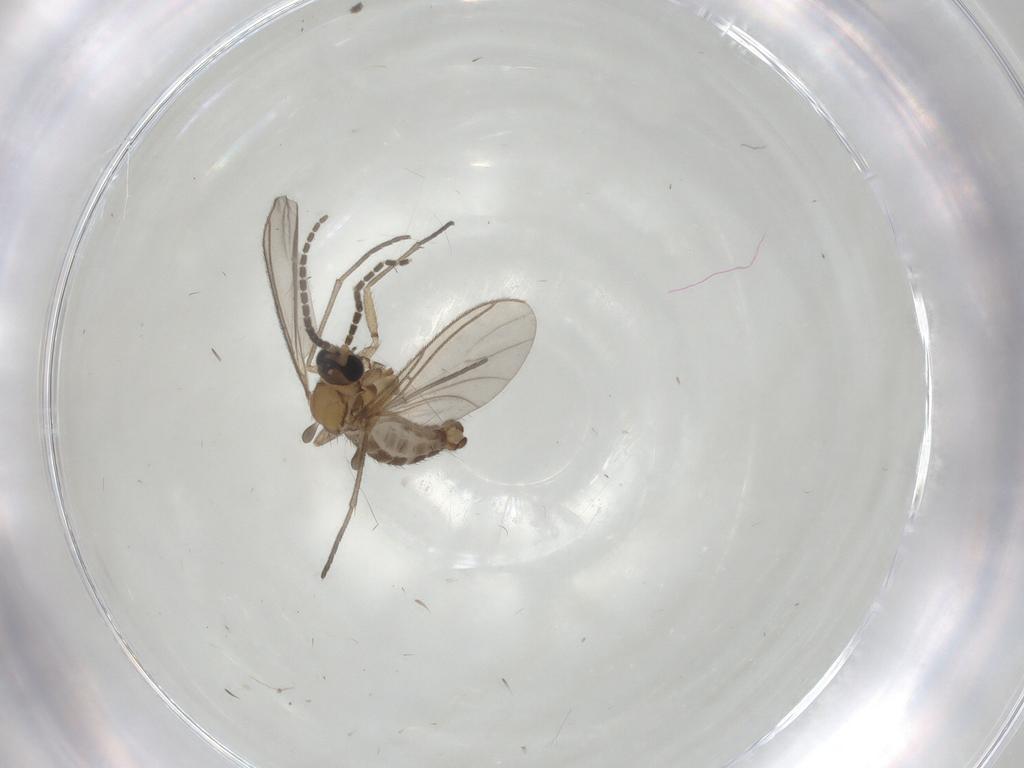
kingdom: Animalia
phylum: Arthropoda
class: Insecta
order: Diptera
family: Sciaridae
